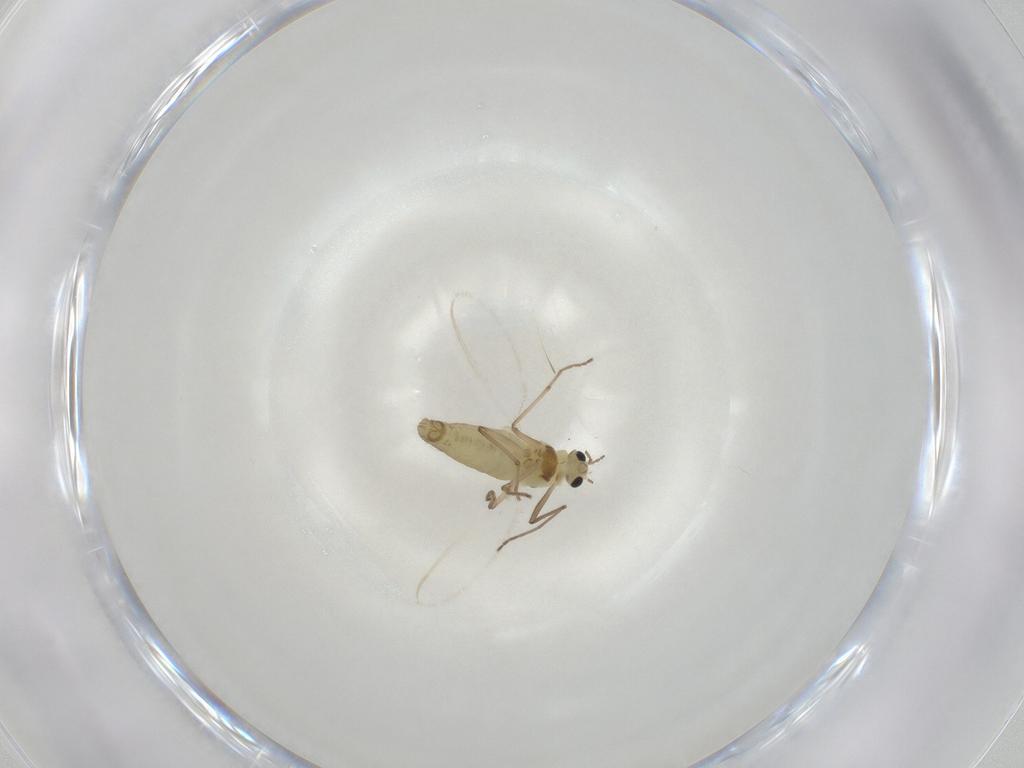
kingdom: Animalia
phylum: Arthropoda
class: Insecta
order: Diptera
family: Chironomidae
